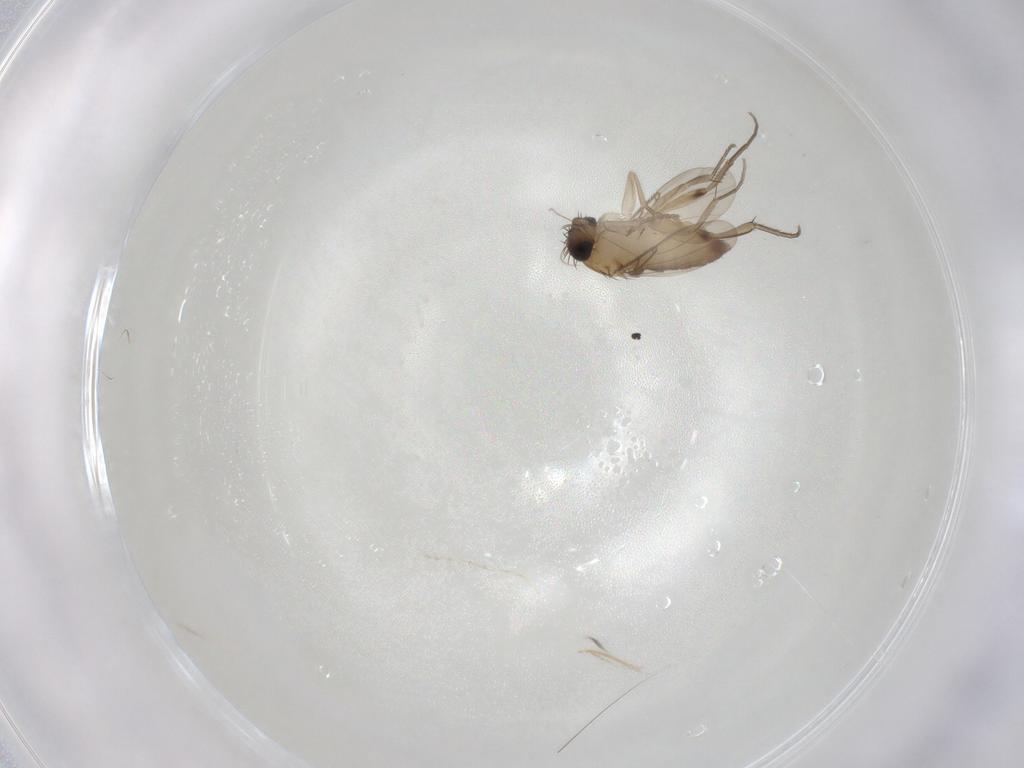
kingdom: Animalia
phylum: Arthropoda
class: Insecta
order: Diptera
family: Phoridae
